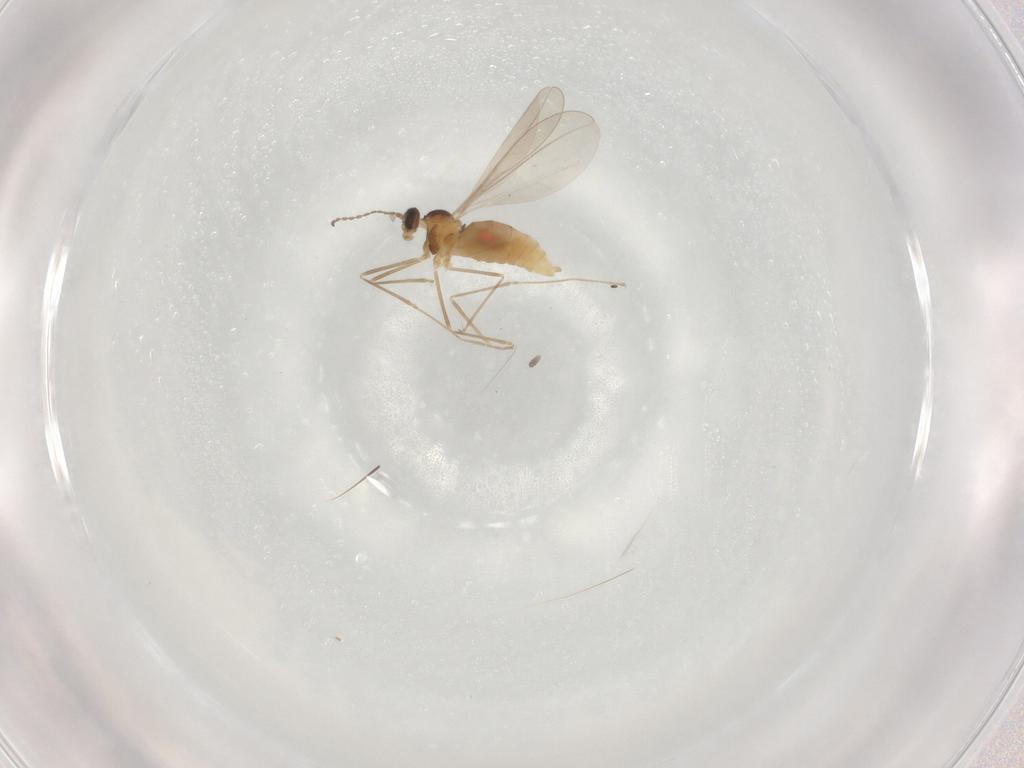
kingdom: Animalia
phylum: Arthropoda
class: Insecta
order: Diptera
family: Cecidomyiidae
